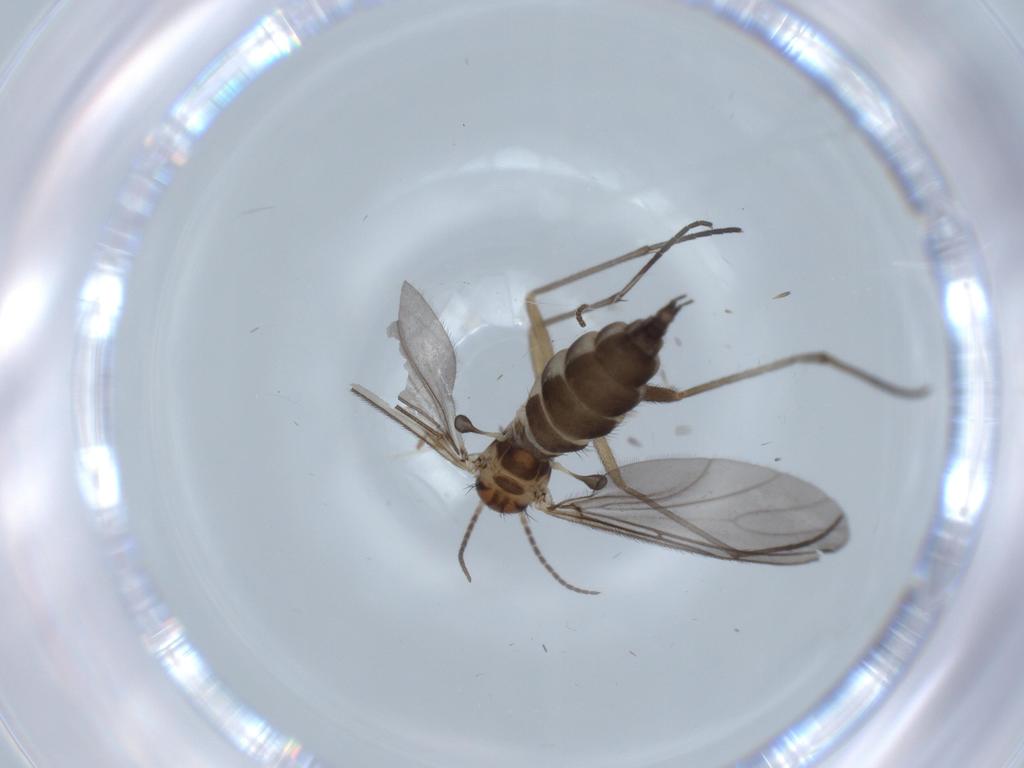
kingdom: Animalia
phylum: Arthropoda
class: Insecta
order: Diptera
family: Sciaridae
